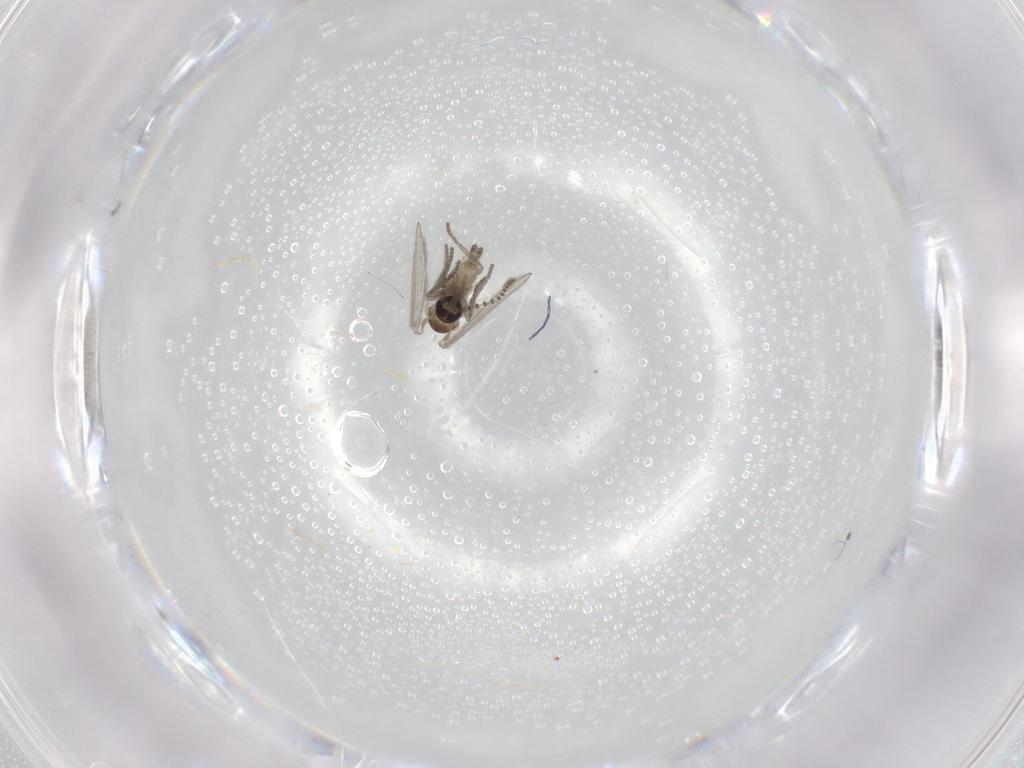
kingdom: Animalia
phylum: Arthropoda
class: Insecta
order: Diptera
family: Psychodidae
